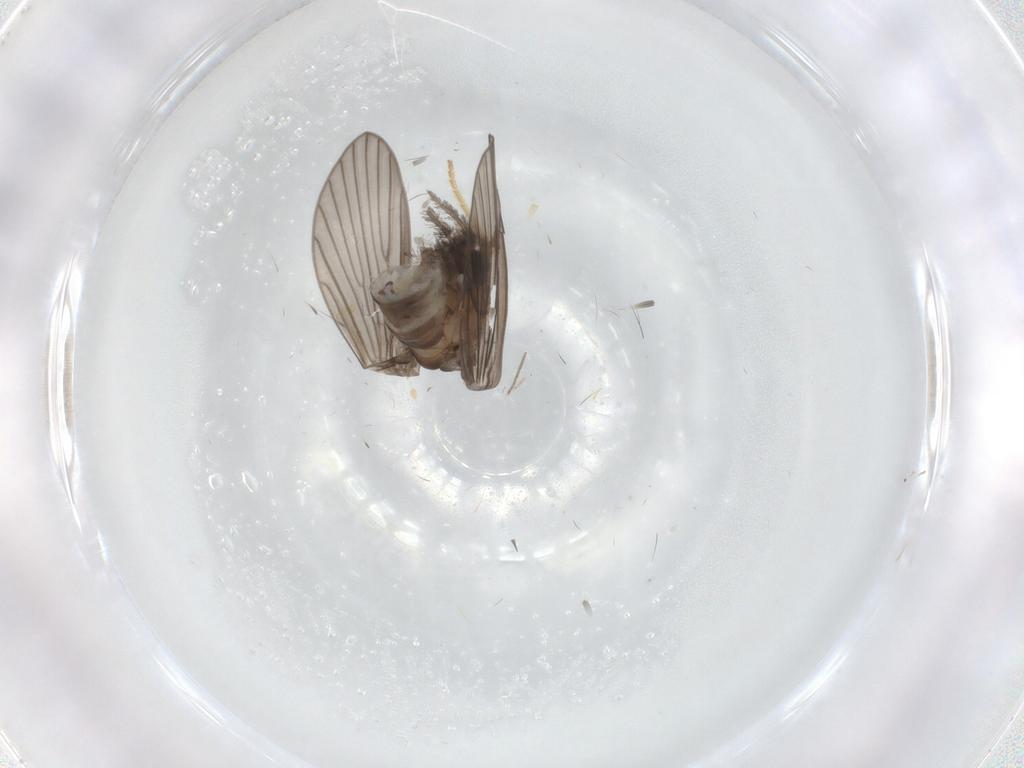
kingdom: Animalia
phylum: Arthropoda
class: Insecta
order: Diptera
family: Psychodidae
